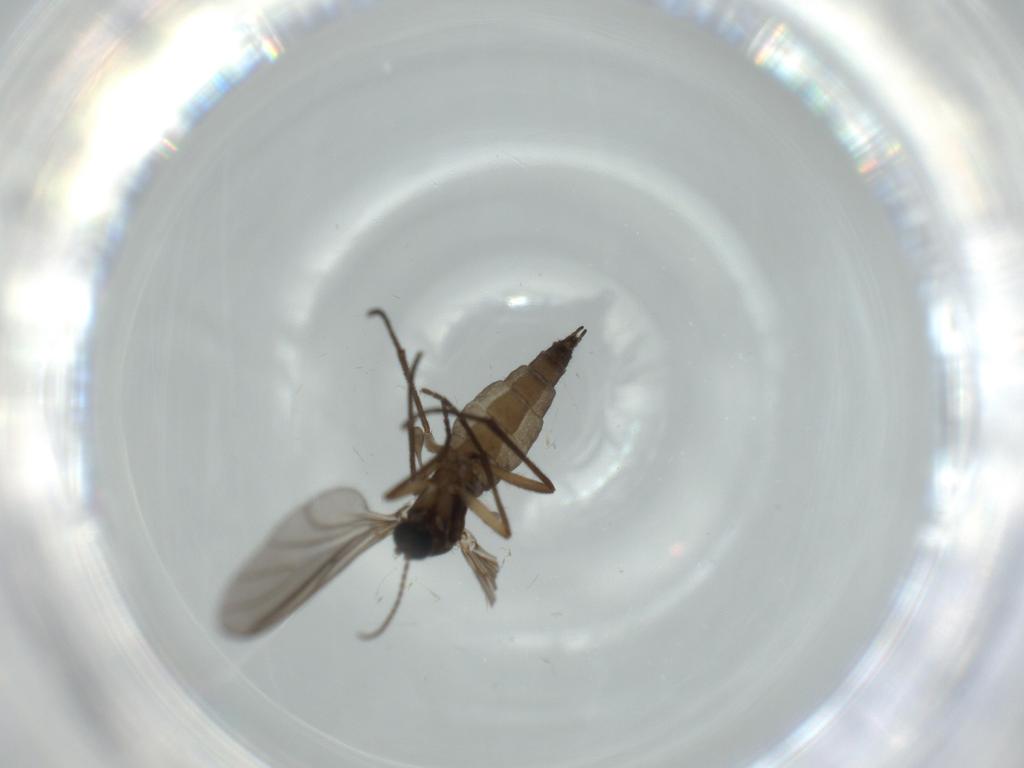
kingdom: Animalia
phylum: Arthropoda
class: Insecta
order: Diptera
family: Sciaridae
